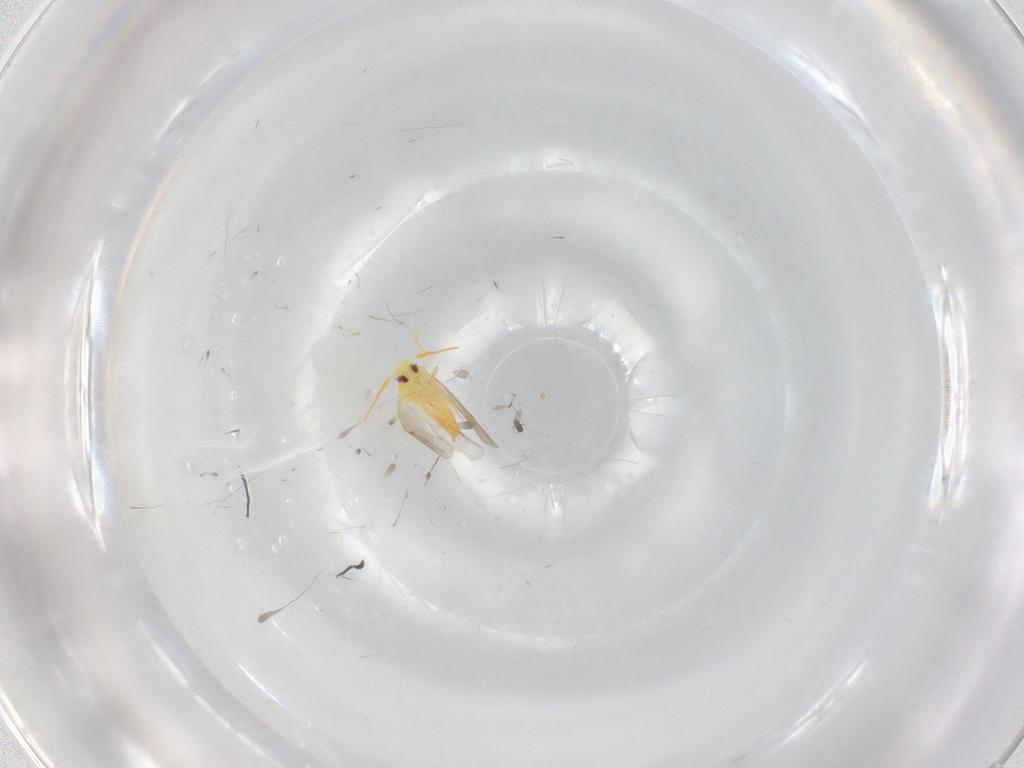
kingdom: Animalia
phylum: Arthropoda
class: Insecta
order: Hemiptera
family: Aleyrodidae
